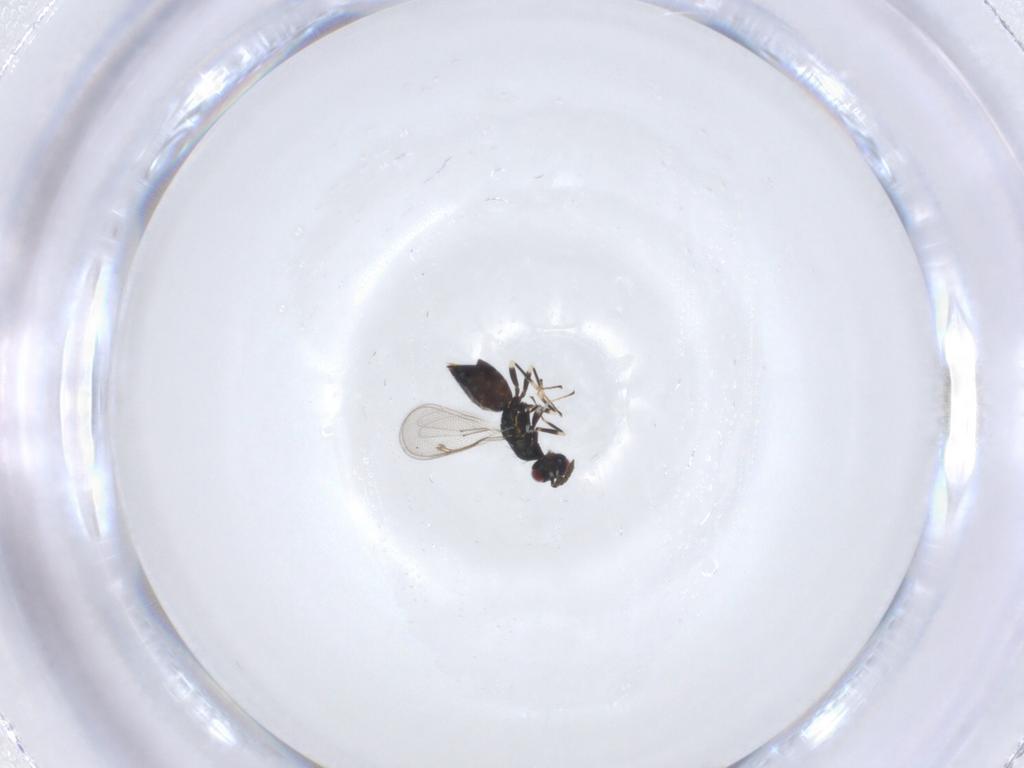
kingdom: Animalia
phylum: Arthropoda
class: Insecta
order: Hymenoptera
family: Eulophidae
